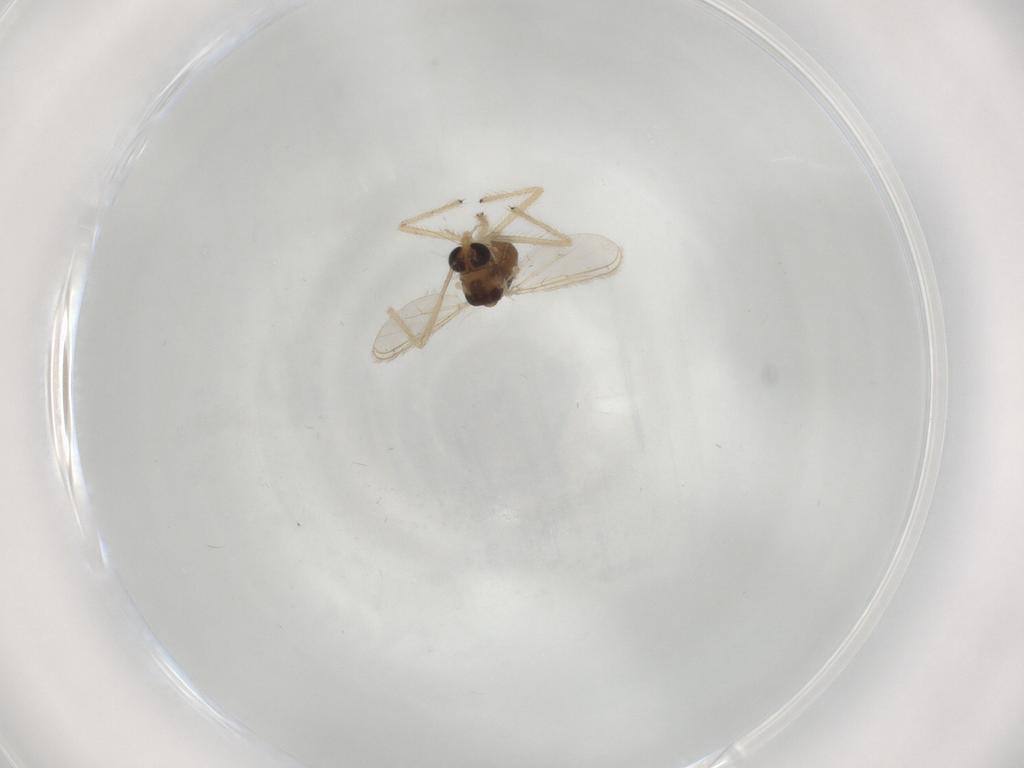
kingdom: Animalia
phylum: Arthropoda
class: Insecta
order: Diptera
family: Chironomidae
